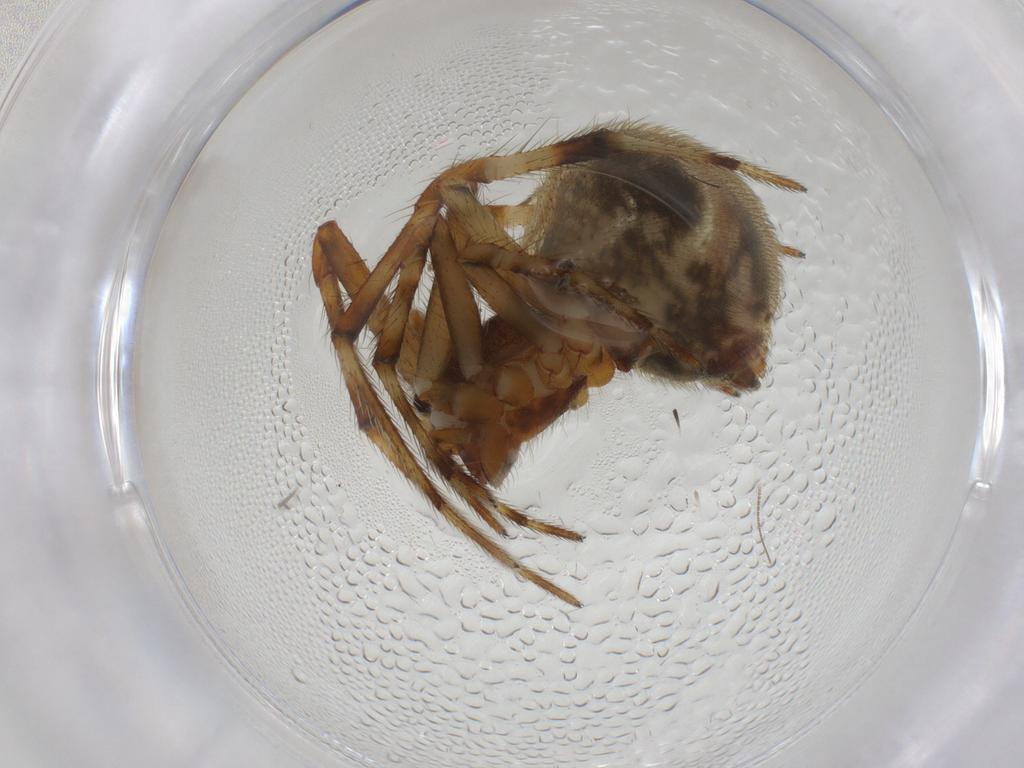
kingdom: Animalia
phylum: Arthropoda
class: Arachnida
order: Araneae
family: Theridiidae
